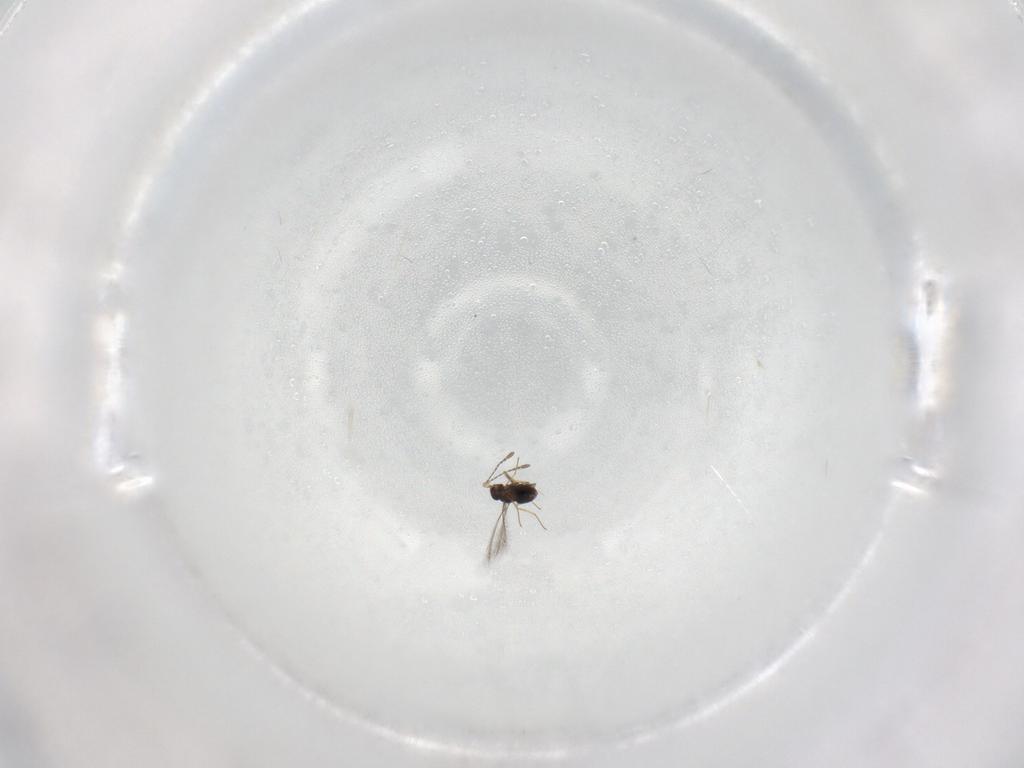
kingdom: Animalia
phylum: Arthropoda
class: Insecta
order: Hymenoptera
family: Mymaridae
